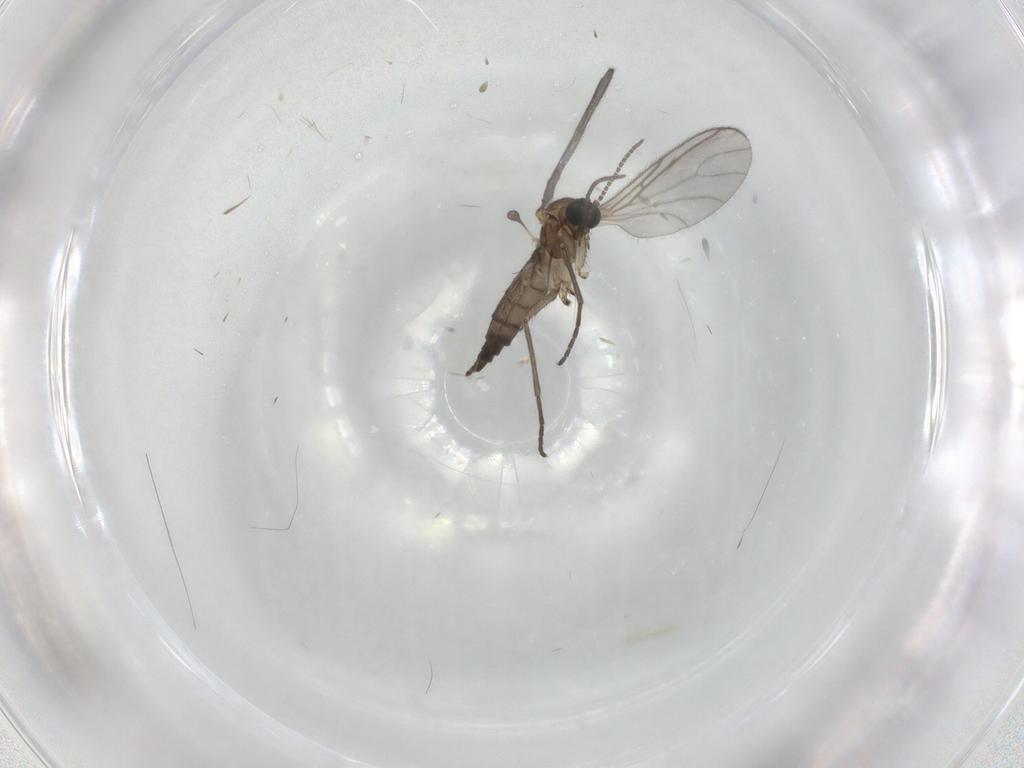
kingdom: Animalia
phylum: Arthropoda
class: Insecta
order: Diptera
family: Sciaridae
